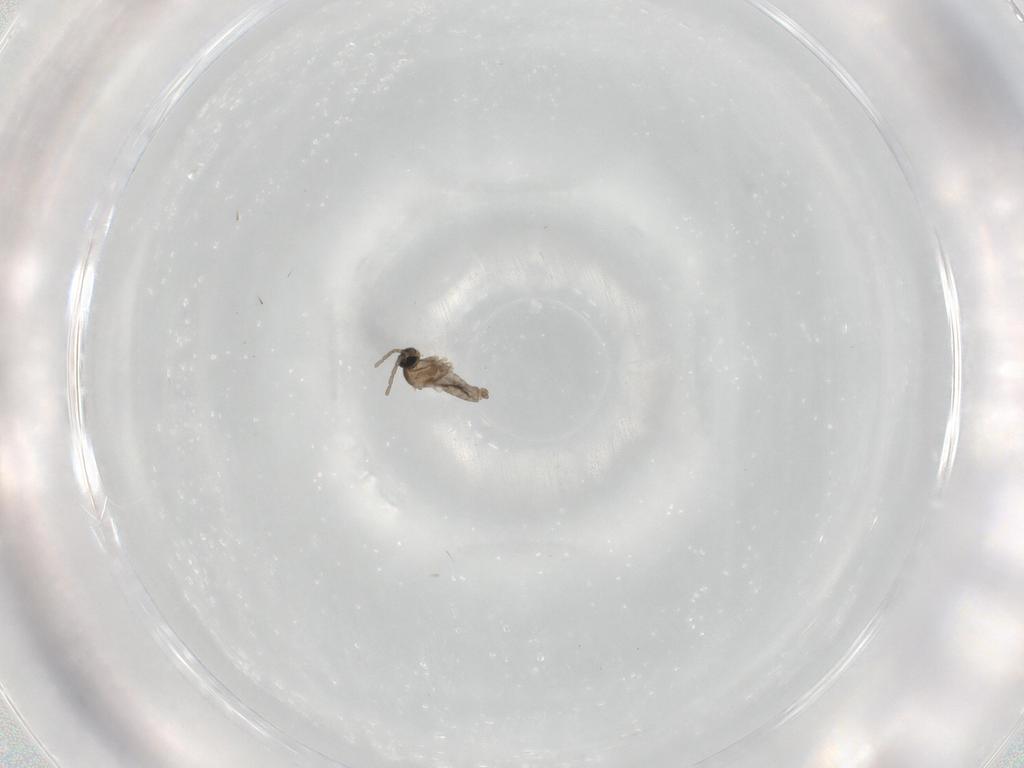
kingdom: Animalia
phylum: Arthropoda
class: Insecta
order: Diptera
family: Cecidomyiidae
